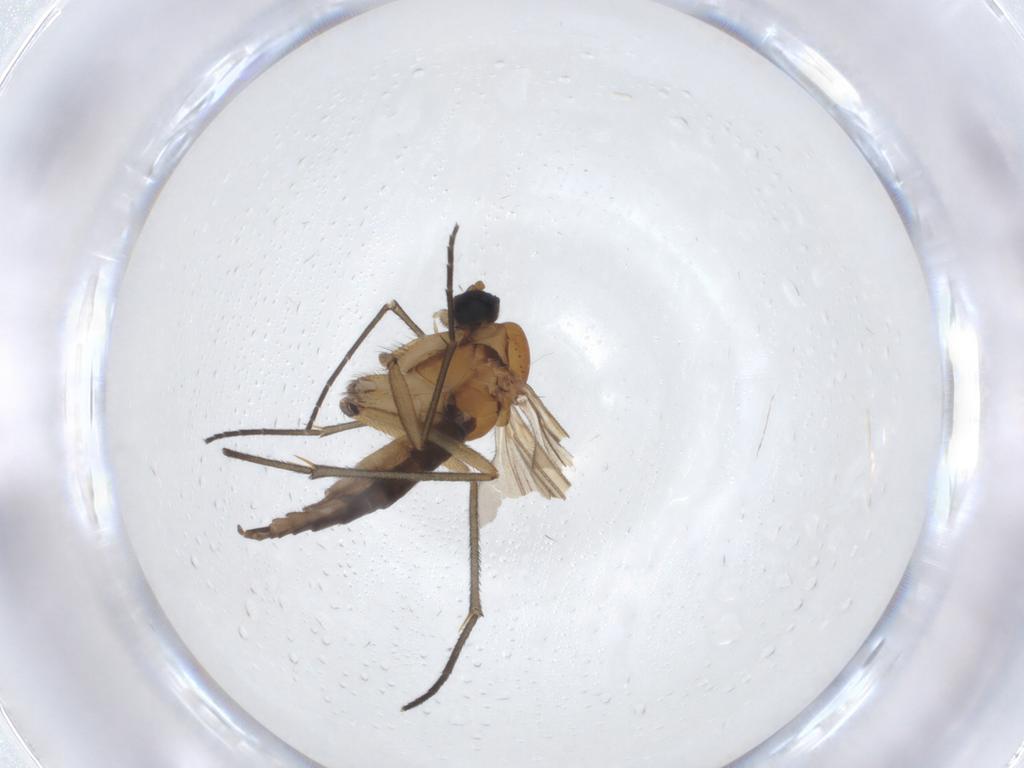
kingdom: Animalia
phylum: Arthropoda
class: Insecta
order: Diptera
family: Sciaridae
